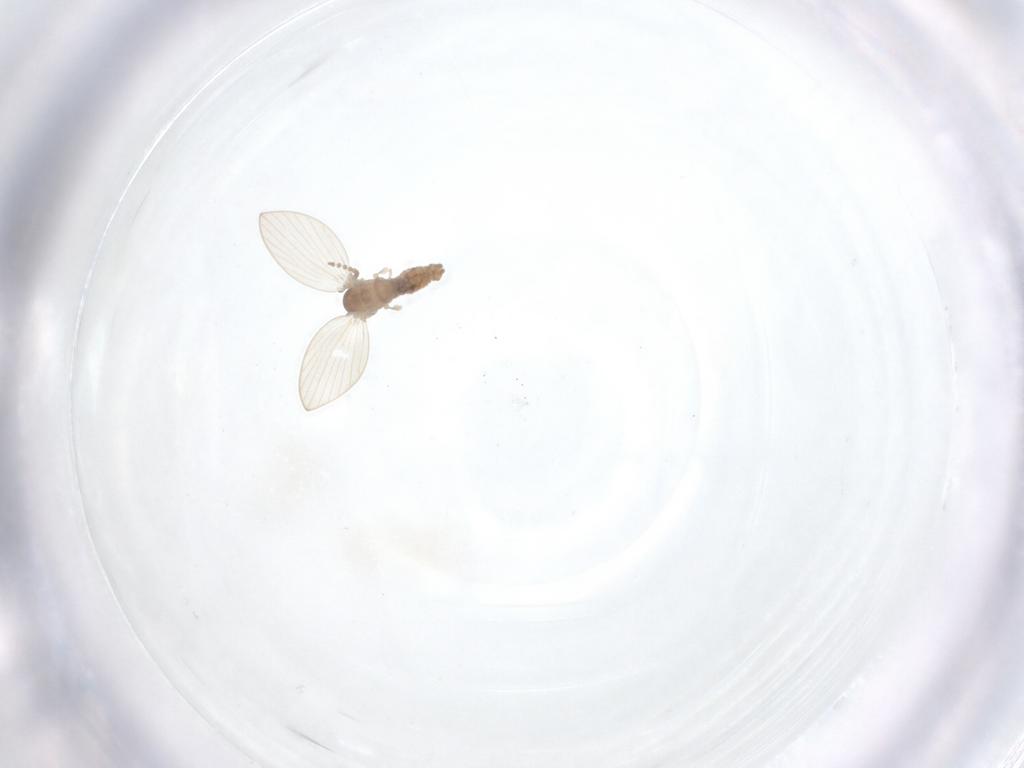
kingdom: Animalia
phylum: Arthropoda
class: Insecta
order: Diptera
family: Psychodidae
